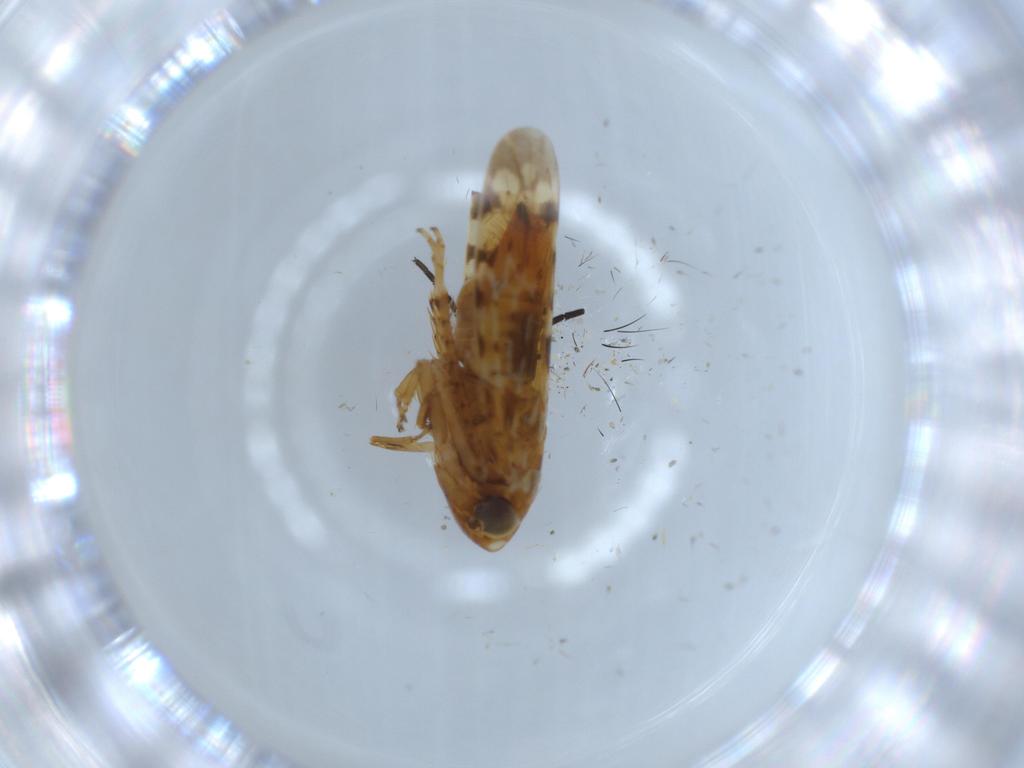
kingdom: Animalia
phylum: Arthropoda
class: Insecta
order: Hemiptera
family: Cicadellidae
